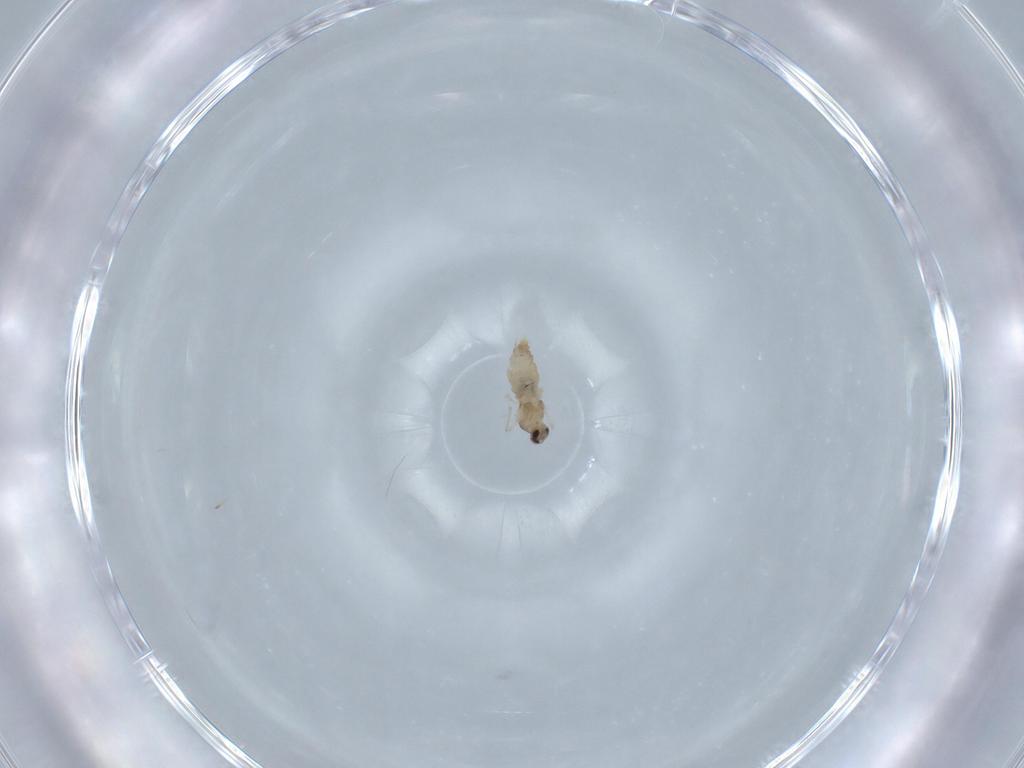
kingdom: Animalia
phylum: Arthropoda
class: Insecta
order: Diptera
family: Cecidomyiidae
